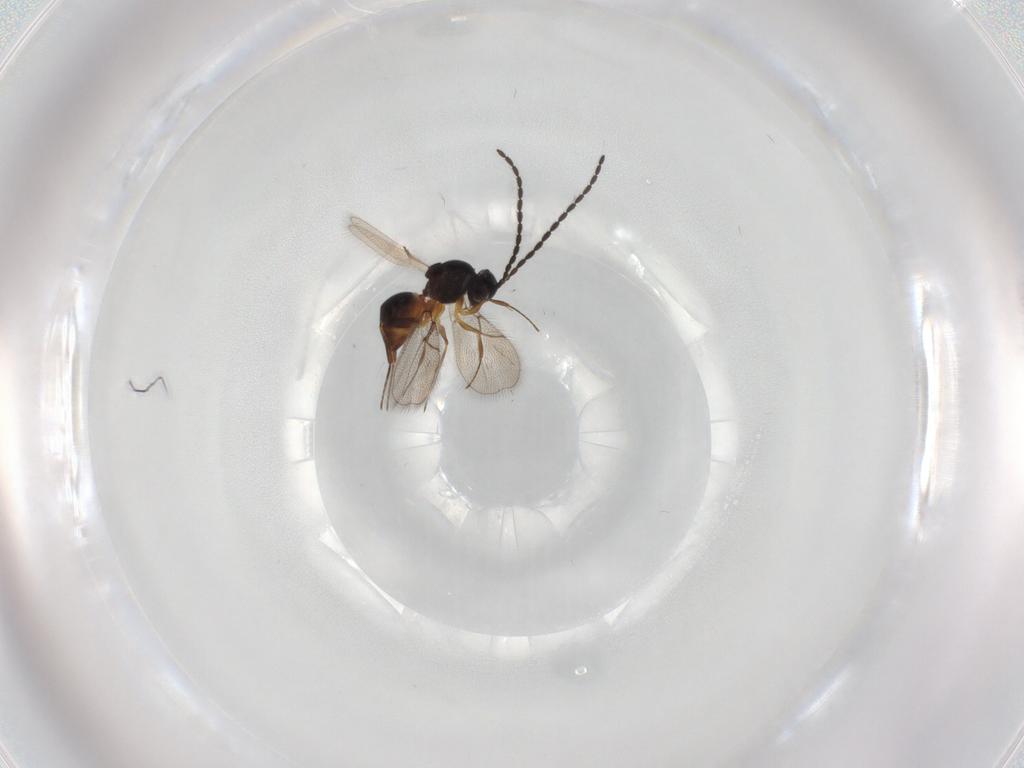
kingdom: Animalia
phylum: Arthropoda
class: Insecta
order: Hymenoptera
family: Figitidae
